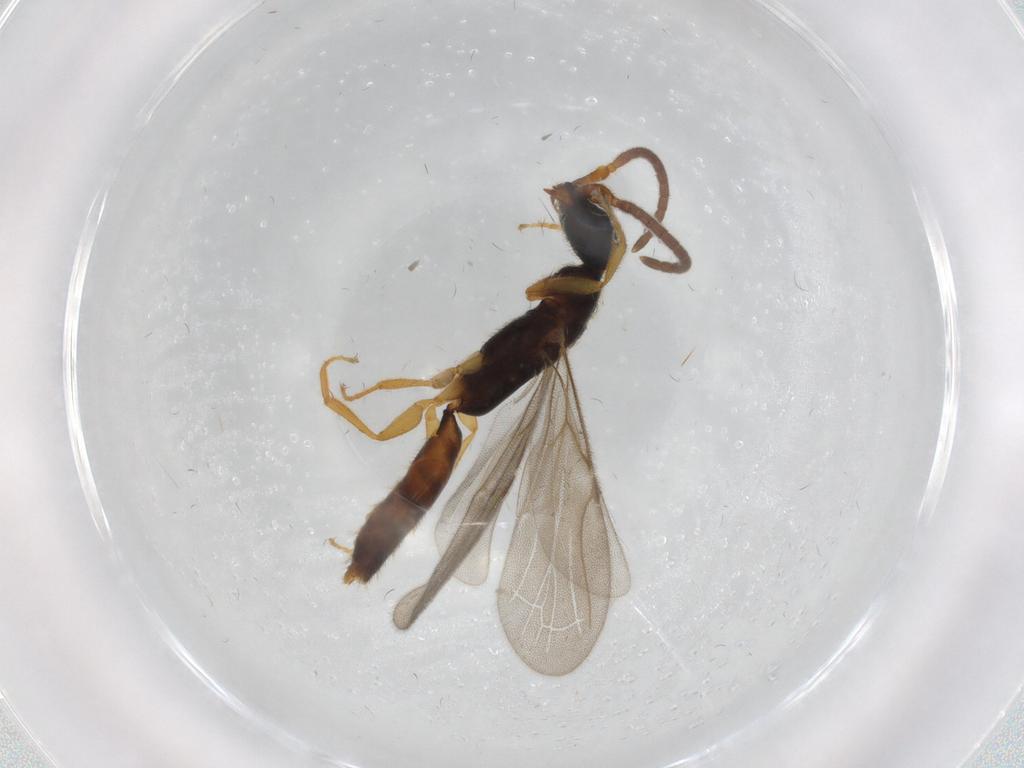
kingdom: Animalia
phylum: Arthropoda
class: Insecta
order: Hymenoptera
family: Bethylidae
